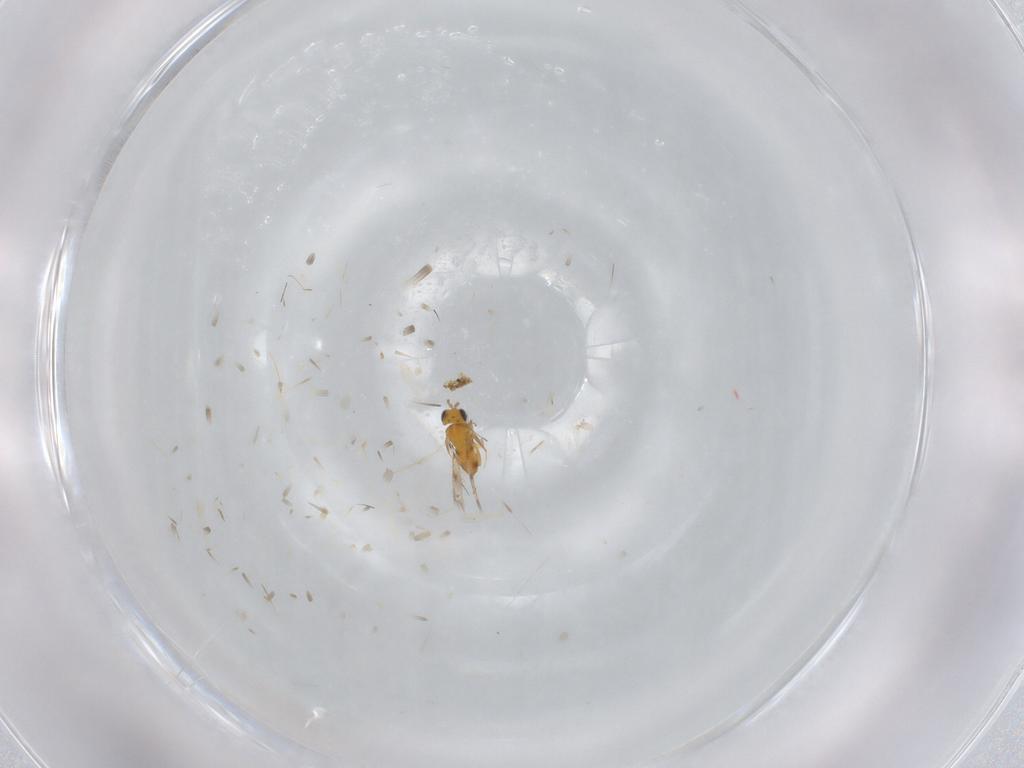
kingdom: Animalia
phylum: Arthropoda
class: Insecta
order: Hymenoptera
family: Aphelinidae
